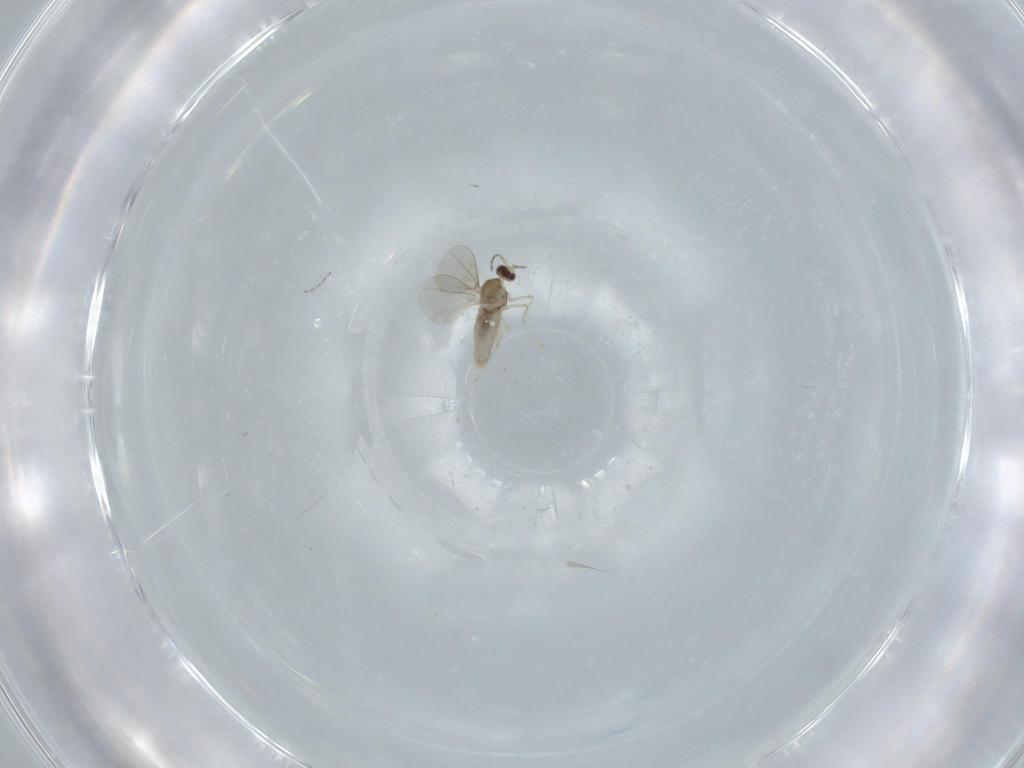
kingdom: Animalia
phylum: Arthropoda
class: Insecta
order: Diptera
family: Cecidomyiidae
